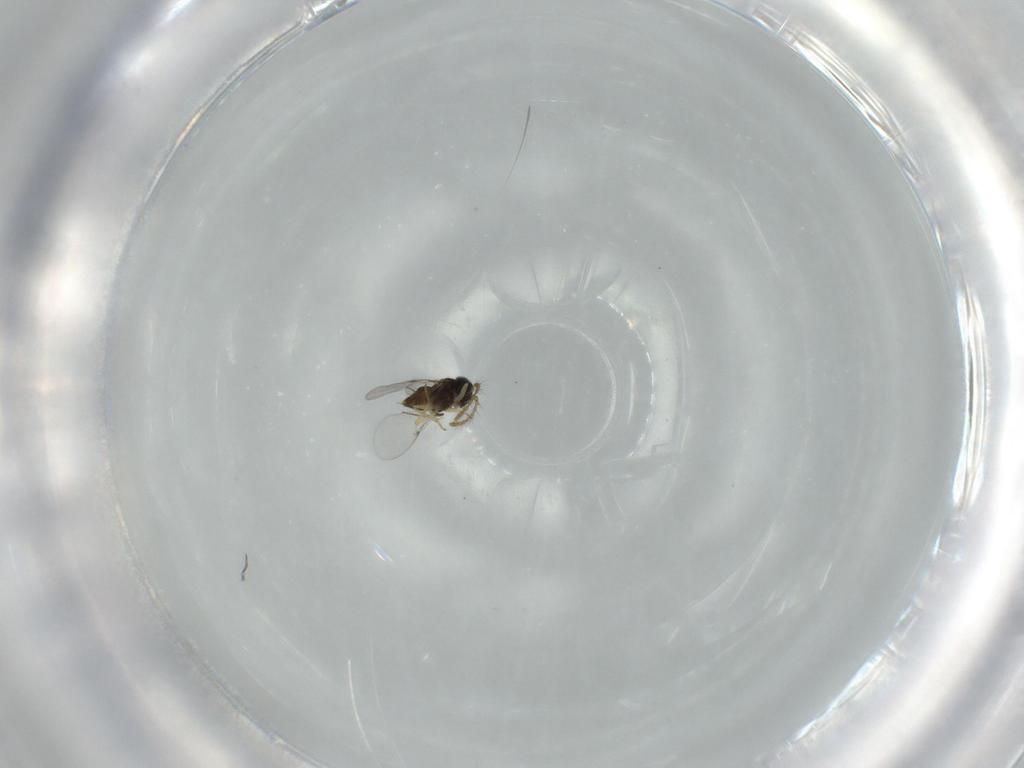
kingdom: Animalia
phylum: Arthropoda
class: Insecta
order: Hymenoptera
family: Encyrtidae
